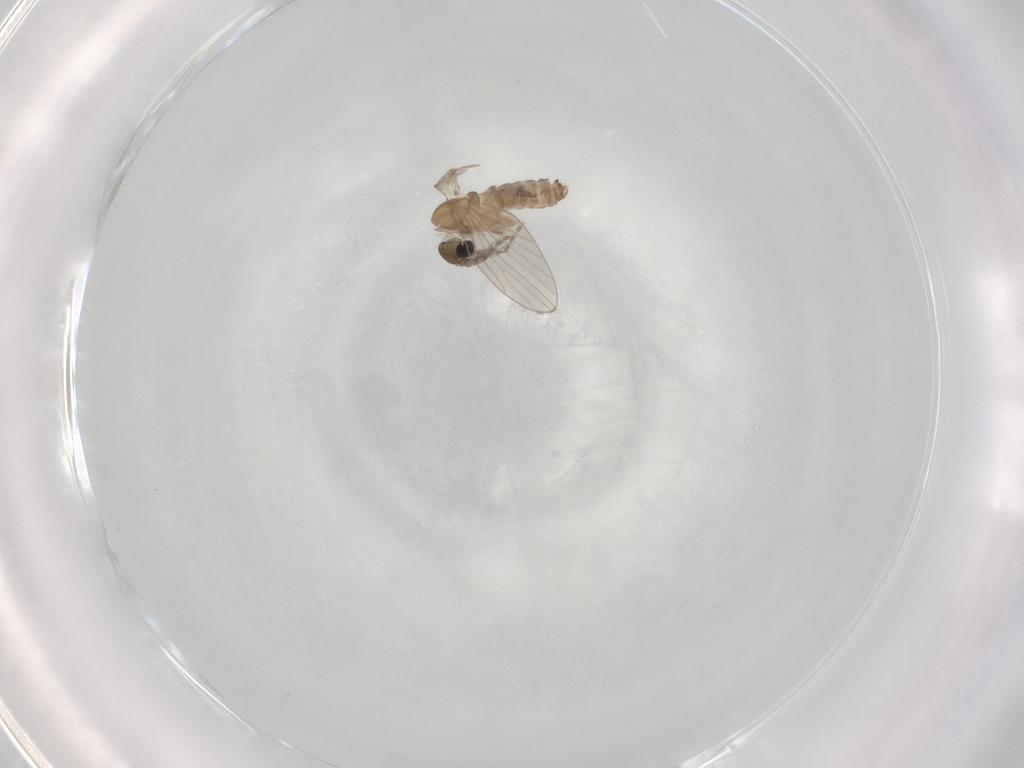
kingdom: Animalia
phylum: Arthropoda
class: Insecta
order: Diptera
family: Psychodidae
